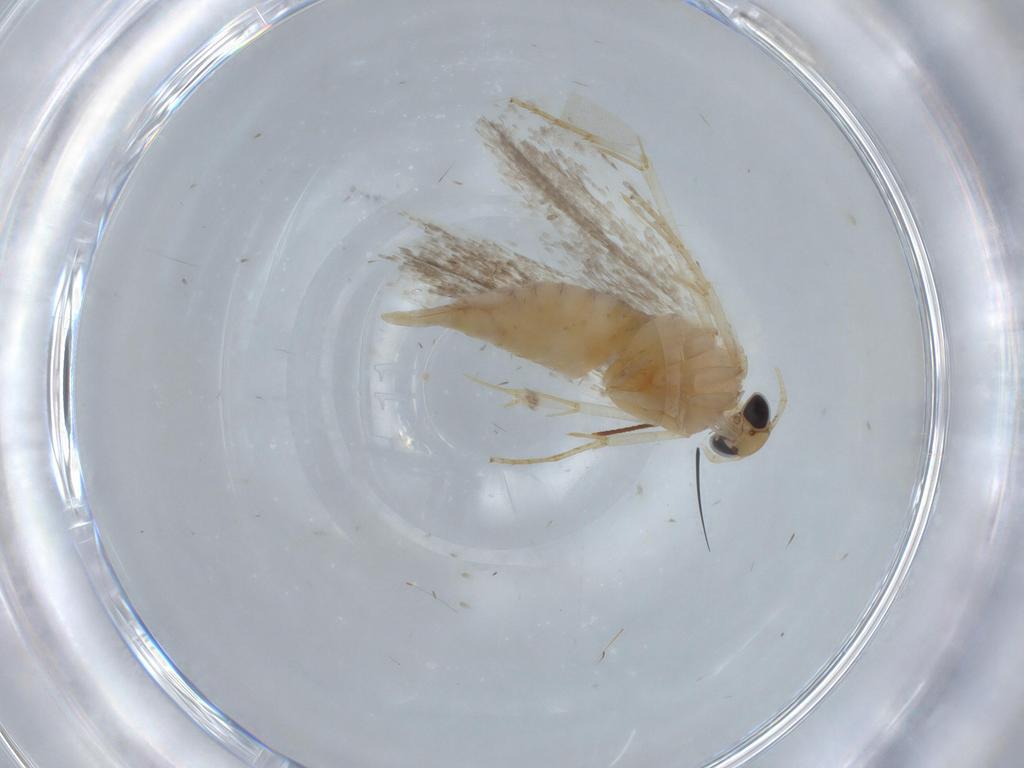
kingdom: Animalia
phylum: Arthropoda
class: Insecta
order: Lepidoptera
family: Gelechiidae
